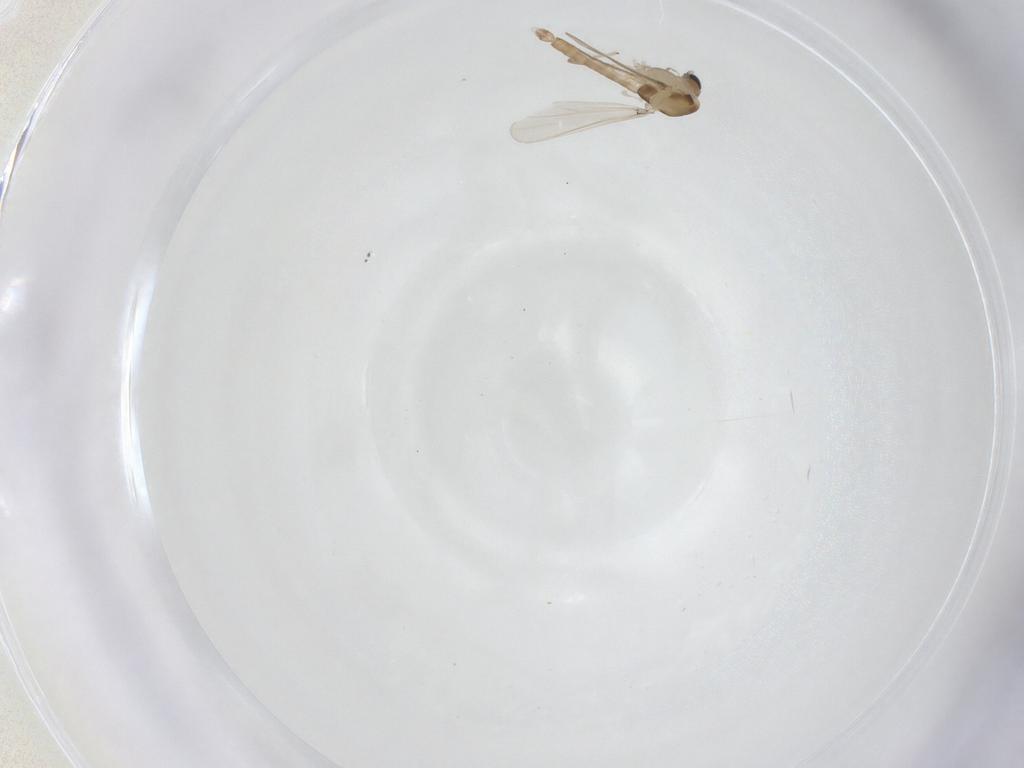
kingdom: Animalia
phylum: Arthropoda
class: Insecta
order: Diptera
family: Chironomidae
